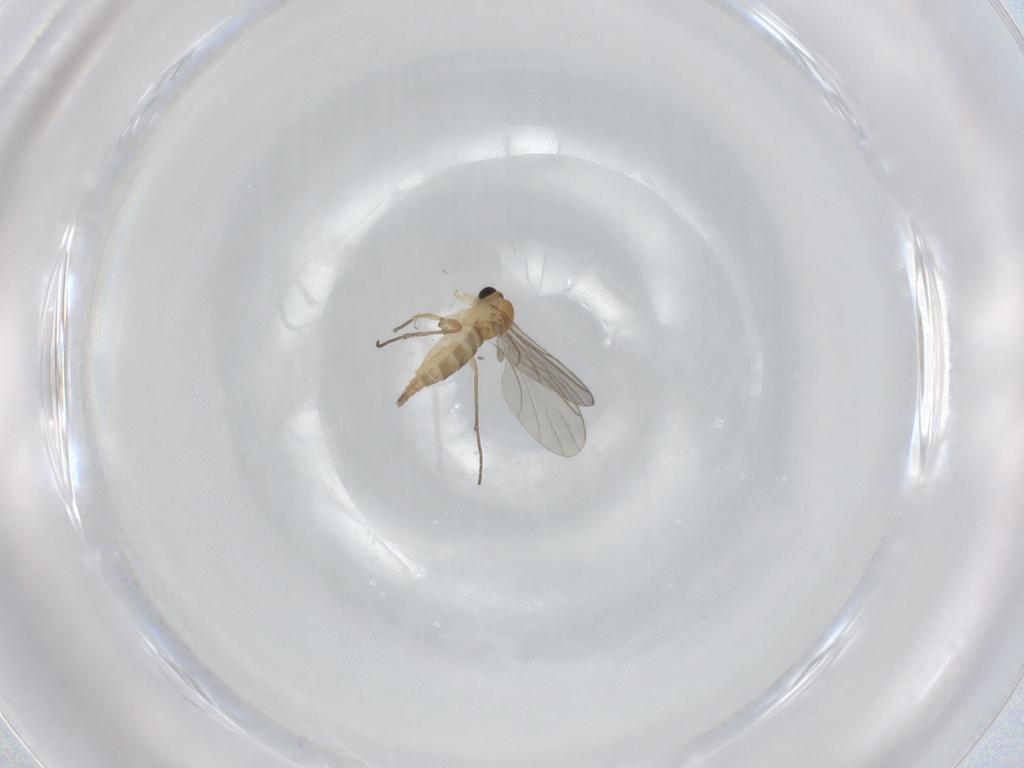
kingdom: Animalia
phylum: Arthropoda
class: Insecta
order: Diptera
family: Sciaridae
